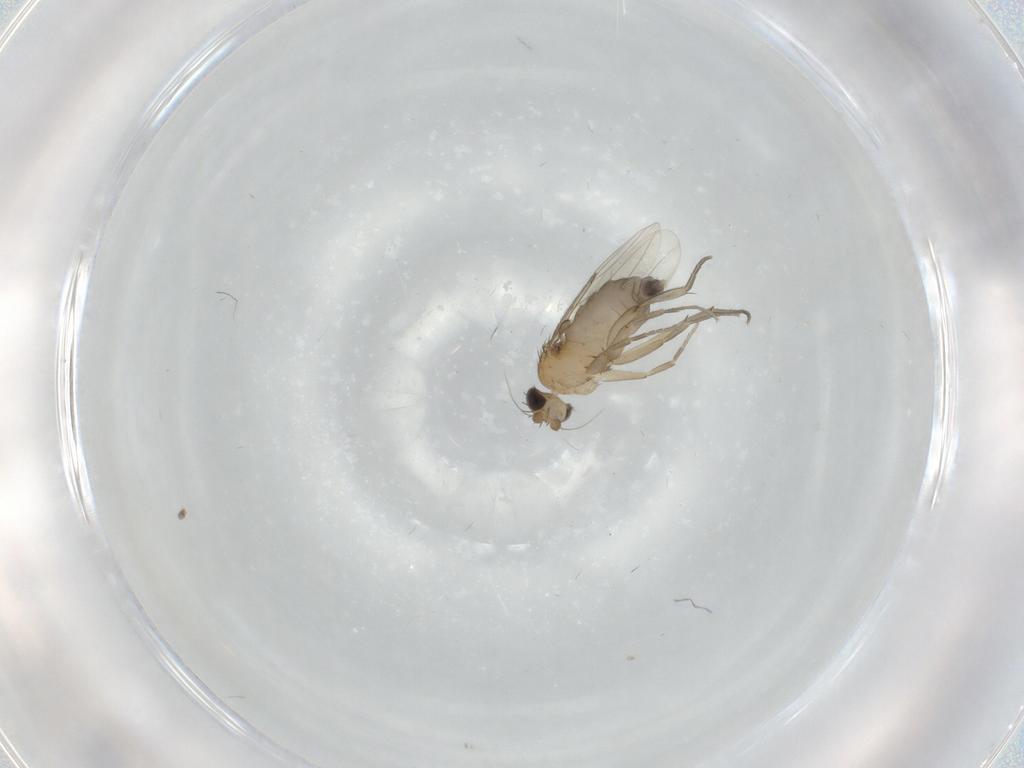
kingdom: Animalia
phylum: Arthropoda
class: Insecta
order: Diptera
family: Phoridae
